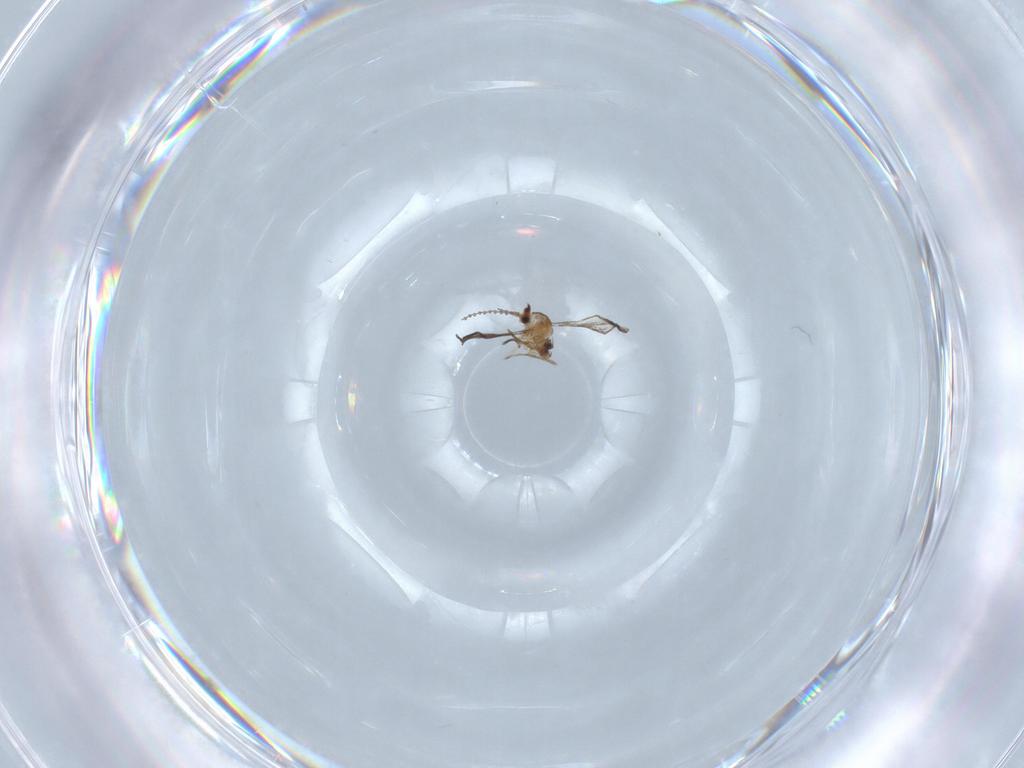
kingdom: Animalia
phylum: Arthropoda
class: Insecta
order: Diptera
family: Cecidomyiidae
